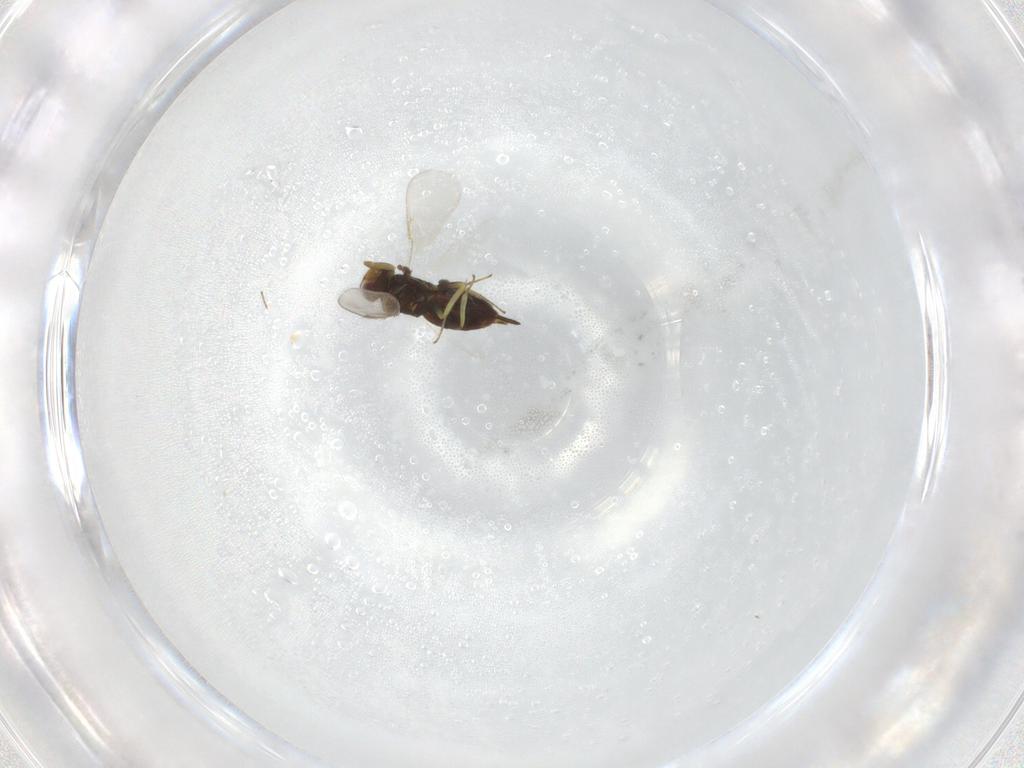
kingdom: Animalia
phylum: Arthropoda
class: Insecta
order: Hymenoptera
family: Aphelinidae
